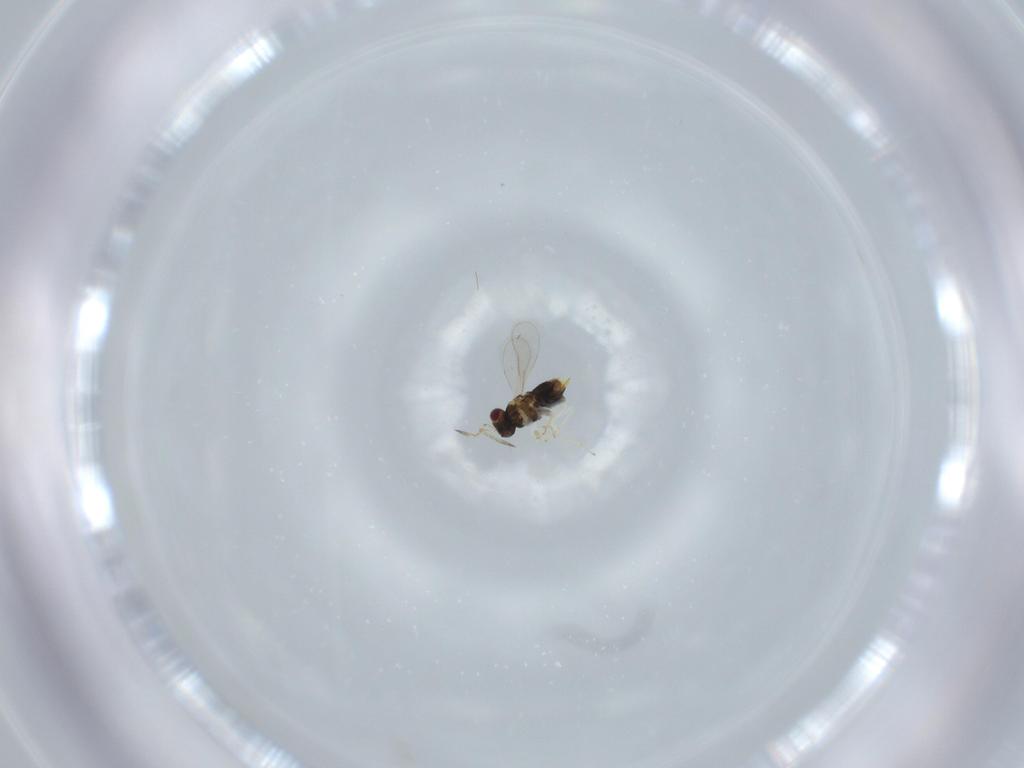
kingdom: Animalia
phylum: Arthropoda
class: Insecta
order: Hymenoptera
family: Aphelinidae
